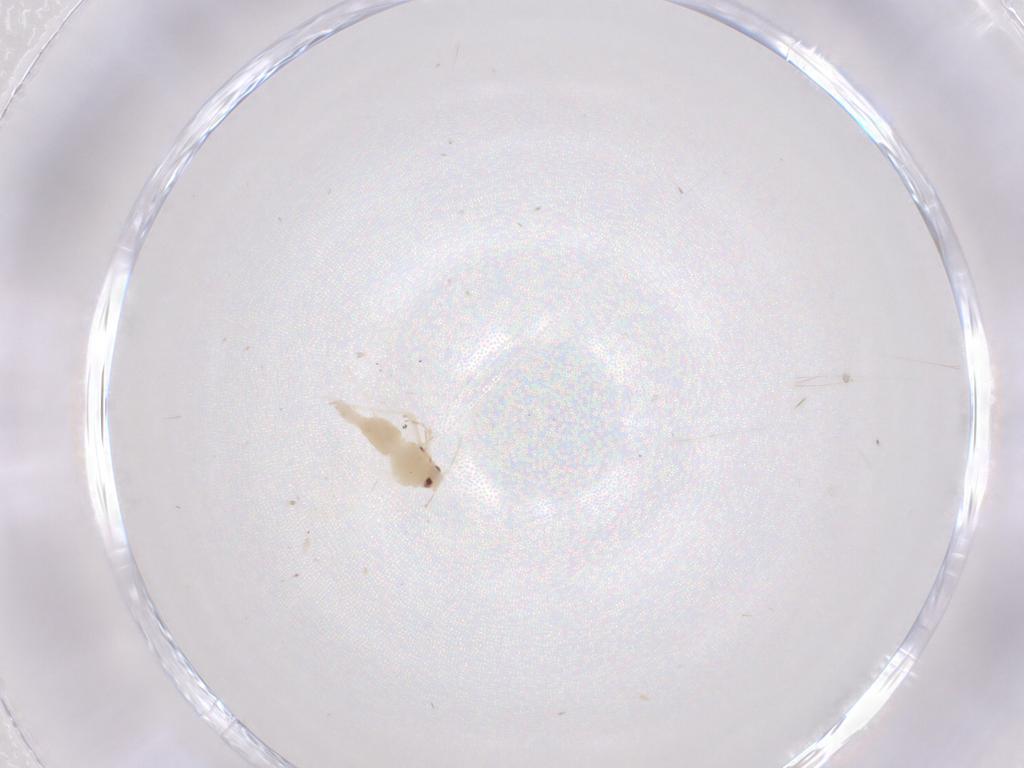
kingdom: Animalia
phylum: Arthropoda
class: Insecta
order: Hemiptera
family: Aleyrodidae
